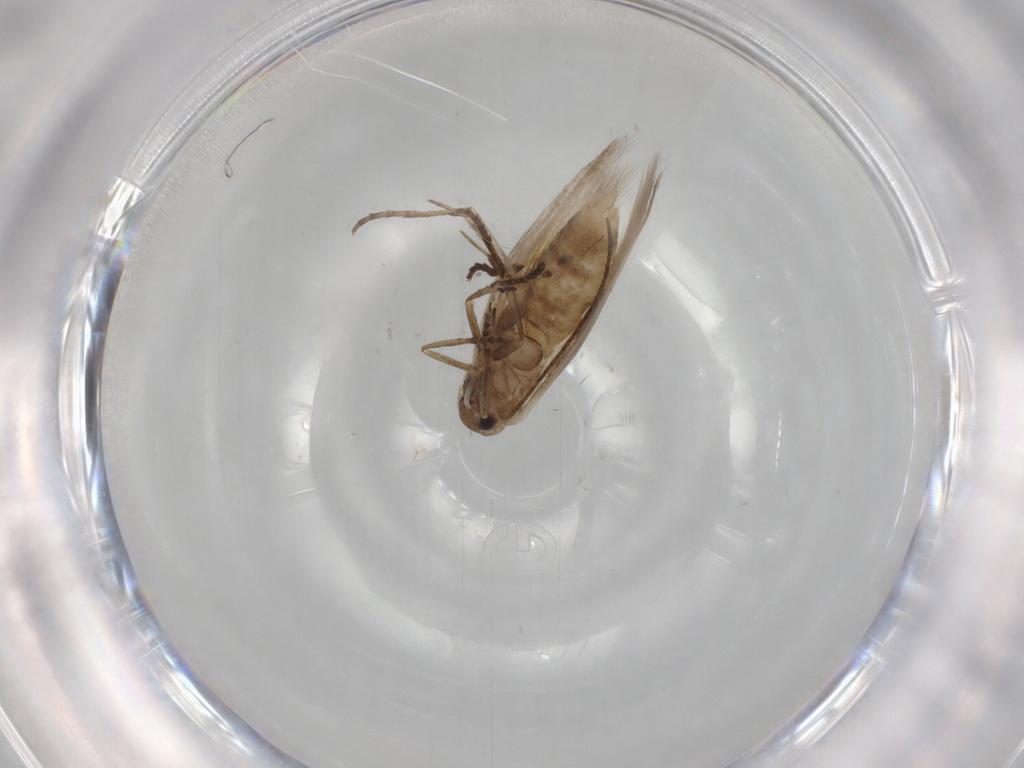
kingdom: Animalia
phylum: Arthropoda
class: Insecta
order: Lepidoptera
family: Bucculatricidae
